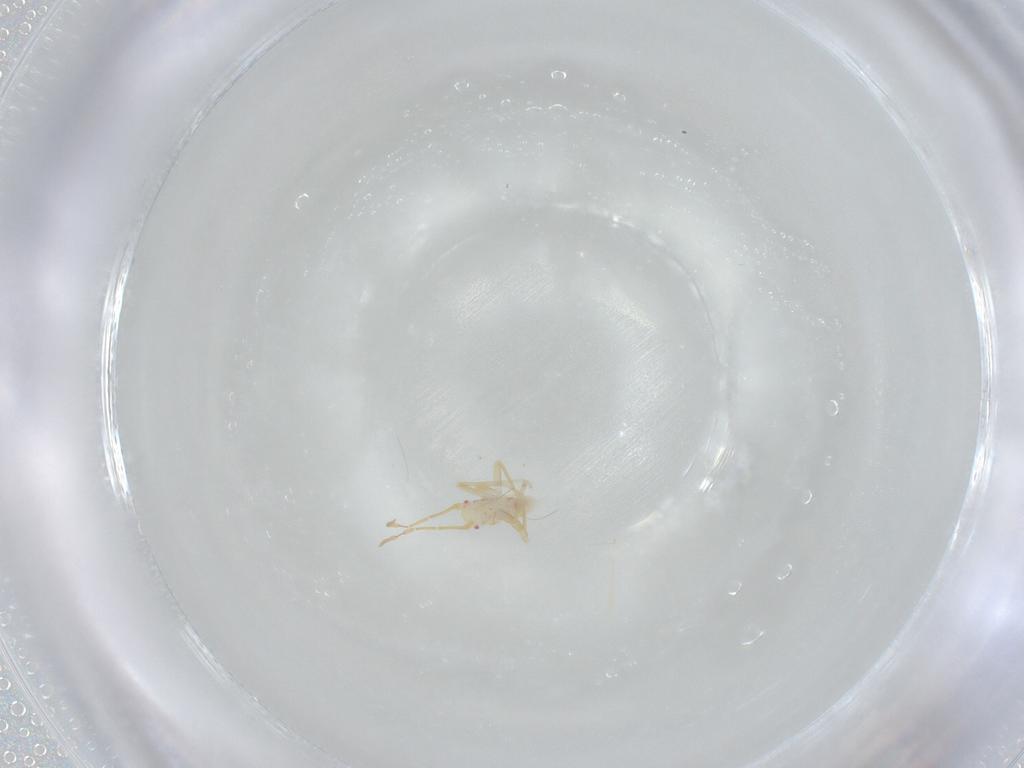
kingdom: Animalia
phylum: Arthropoda
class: Insecta
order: Hemiptera
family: Miridae
